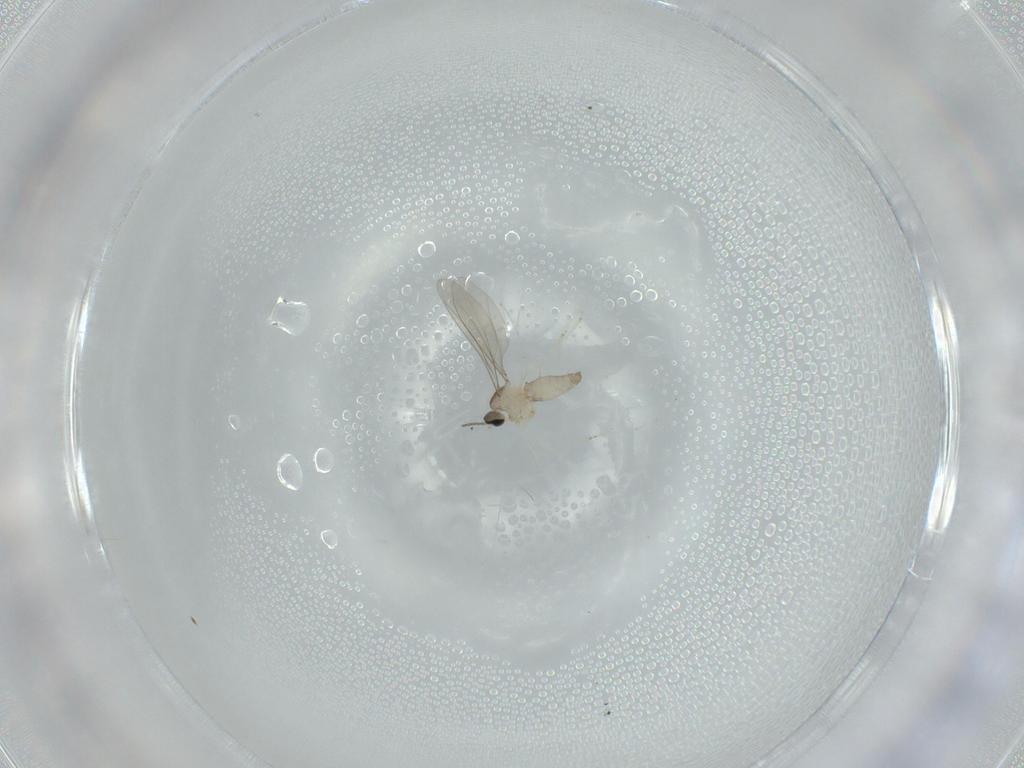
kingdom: Animalia
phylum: Arthropoda
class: Insecta
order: Diptera
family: Cecidomyiidae
